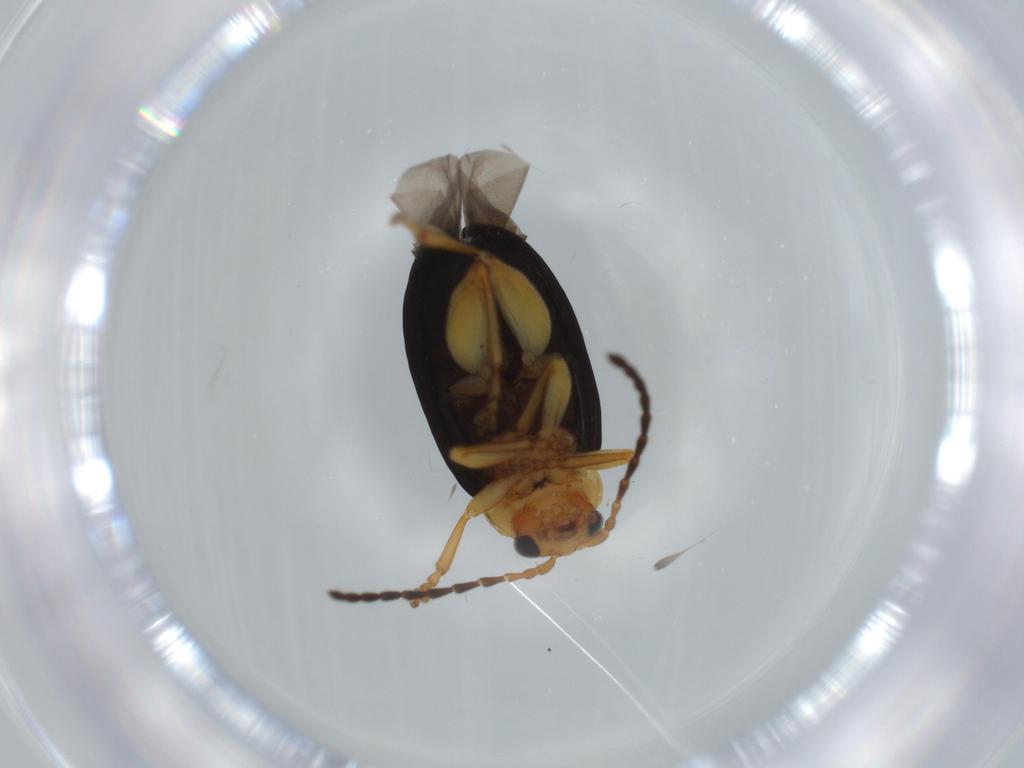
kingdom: Animalia
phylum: Arthropoda
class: Insecta
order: Coleoptera
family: Chrysomelidae
